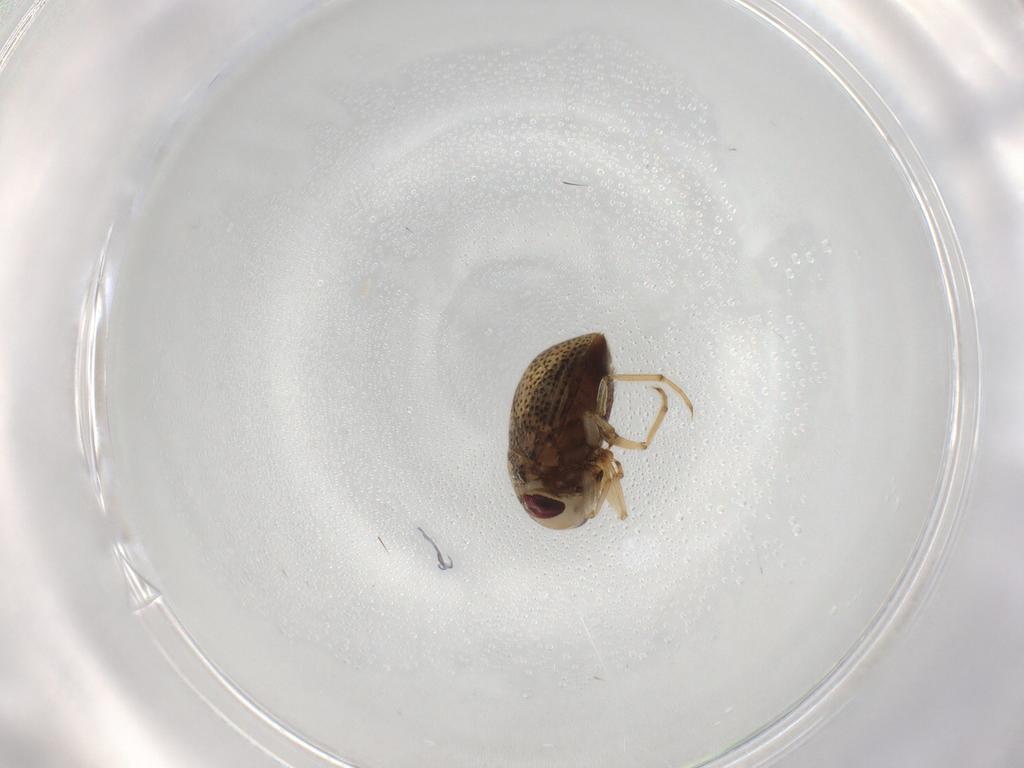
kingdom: Animalia
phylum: Arthropoda
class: Insecta
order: Hemiptera
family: Pleidae
